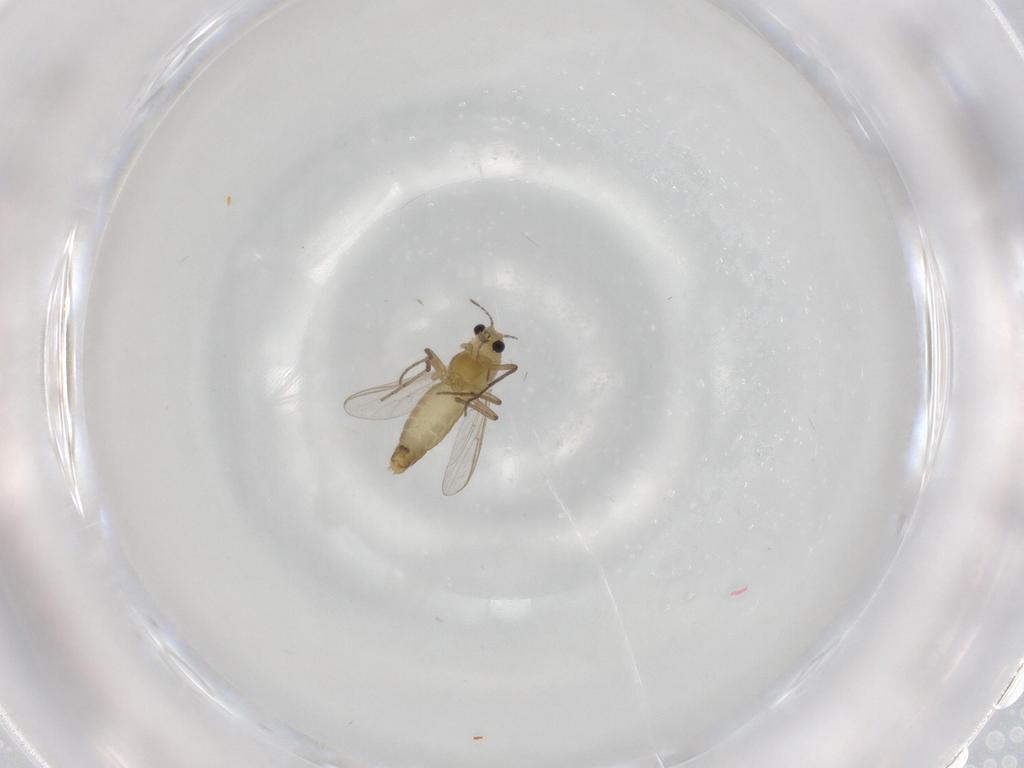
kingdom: Animalia
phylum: Arthropoda
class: Insecta
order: Diptera
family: Chironomidae
